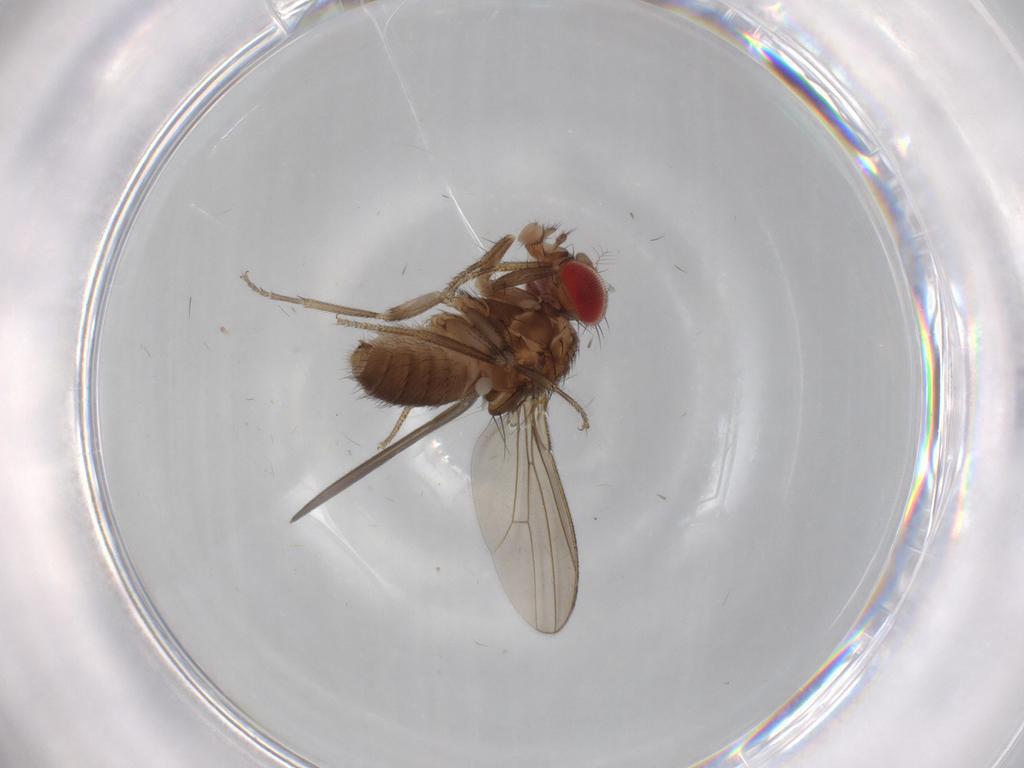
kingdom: Animalia
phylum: Arthropoda
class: Insecta
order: Diptera
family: Drosophilidae
